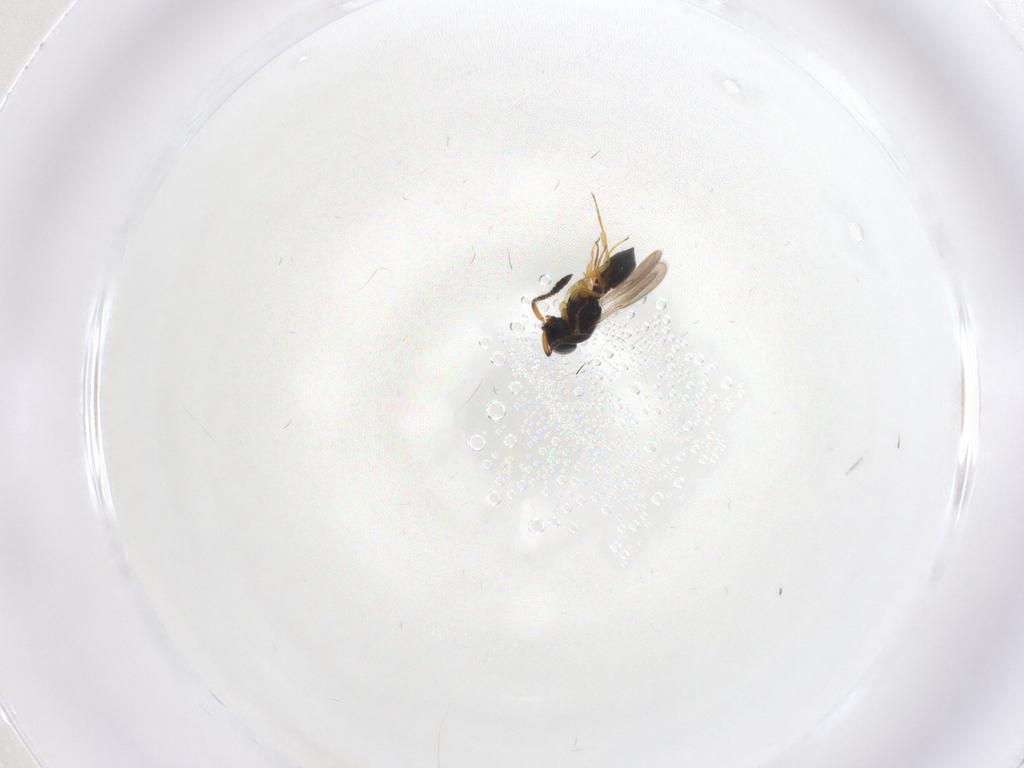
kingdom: Animalia
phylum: Arthropoda
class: Insecta
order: Hymenoptera
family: Scelionidae
